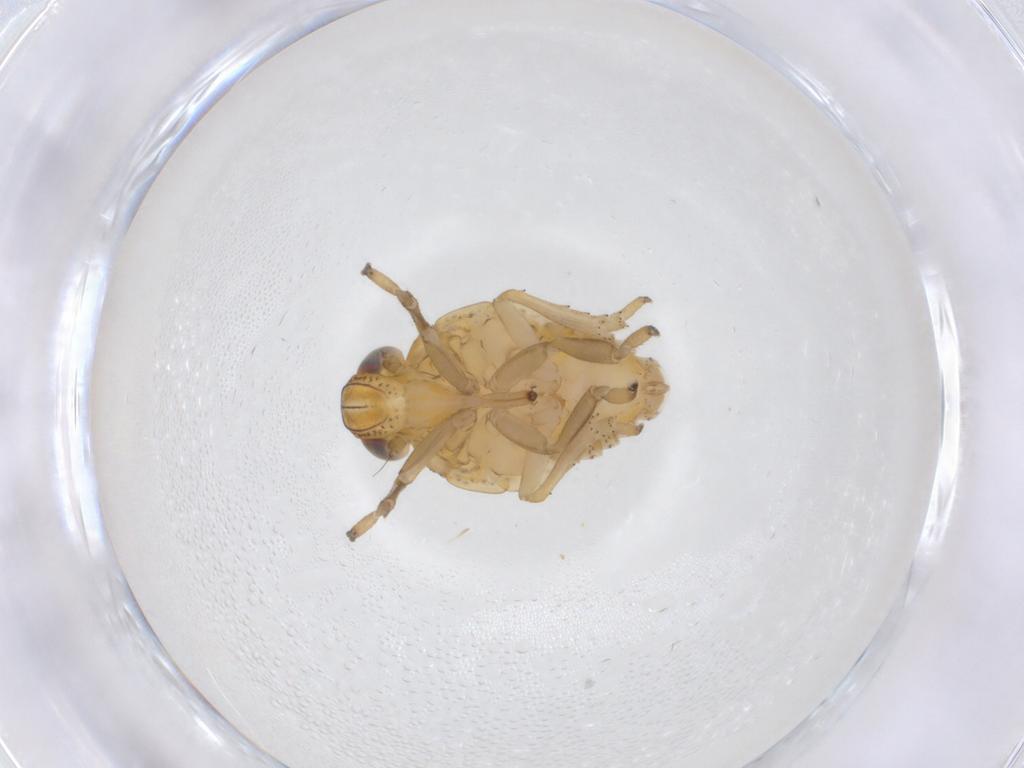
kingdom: Animalia
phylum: Arthropoda
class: Insecta
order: Hemiptera
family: Issidae
